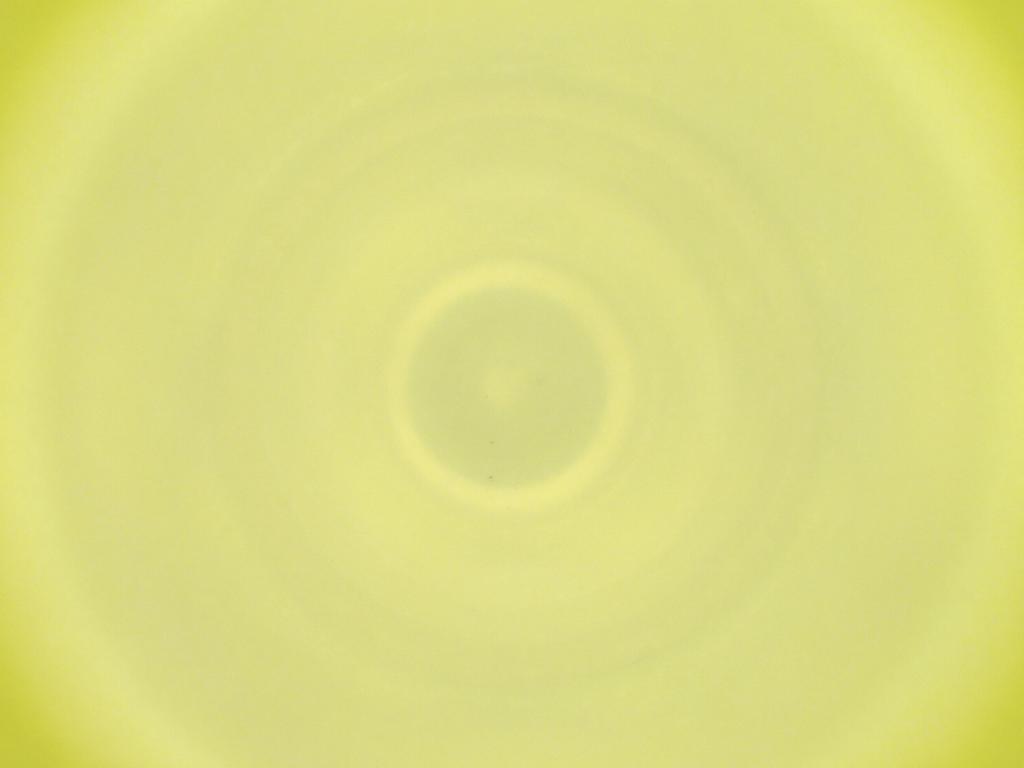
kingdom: Animalia
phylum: Arthropoda
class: Insecta
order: Diptera
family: Cecidomyiidae
